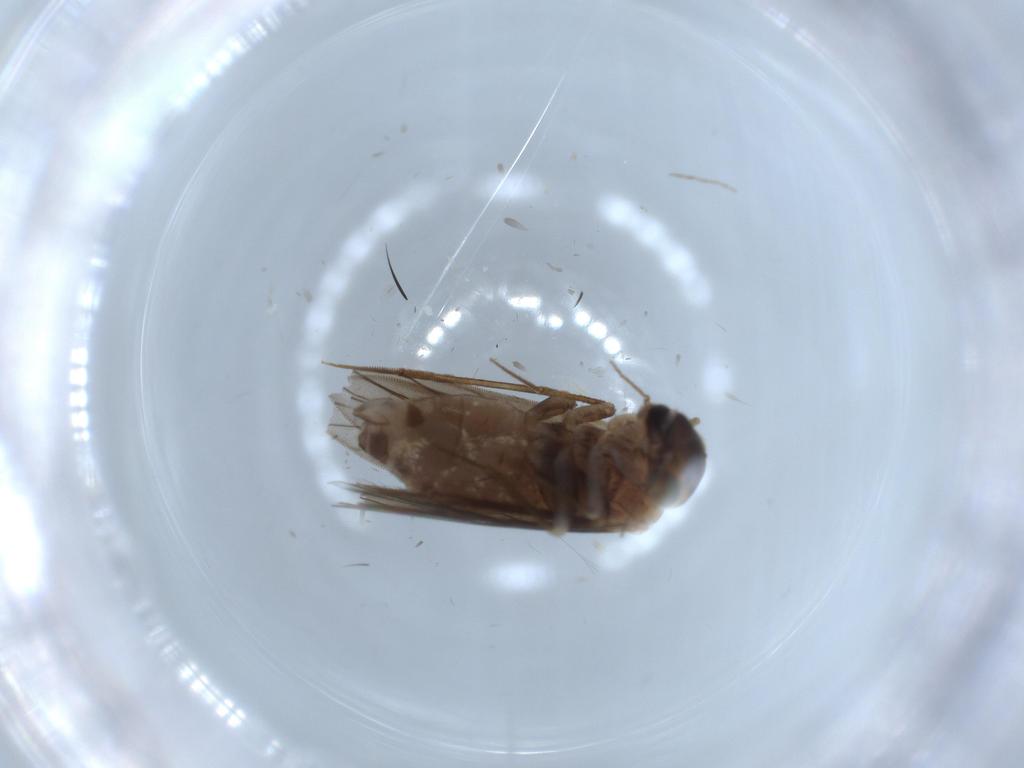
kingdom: Animalia
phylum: Arthropoda
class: Insecta
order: Psocodea
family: Lepidopsocidae
